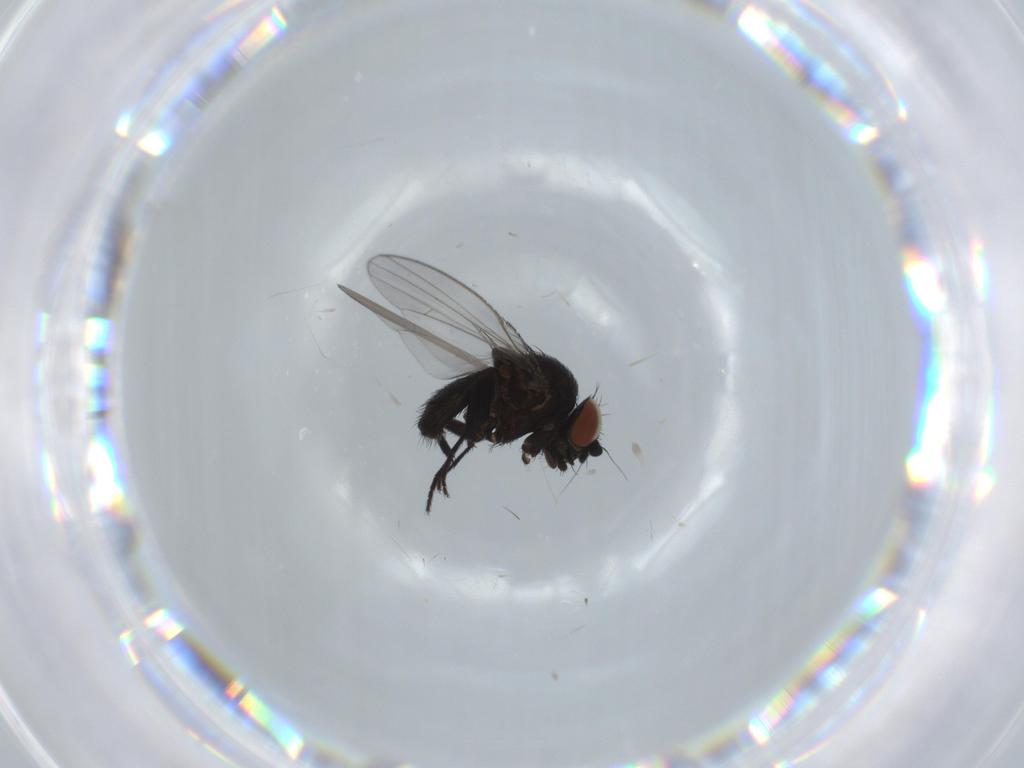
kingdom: Animalia
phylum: Arthropoda
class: Insecta
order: Diptera
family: Milichiidae
